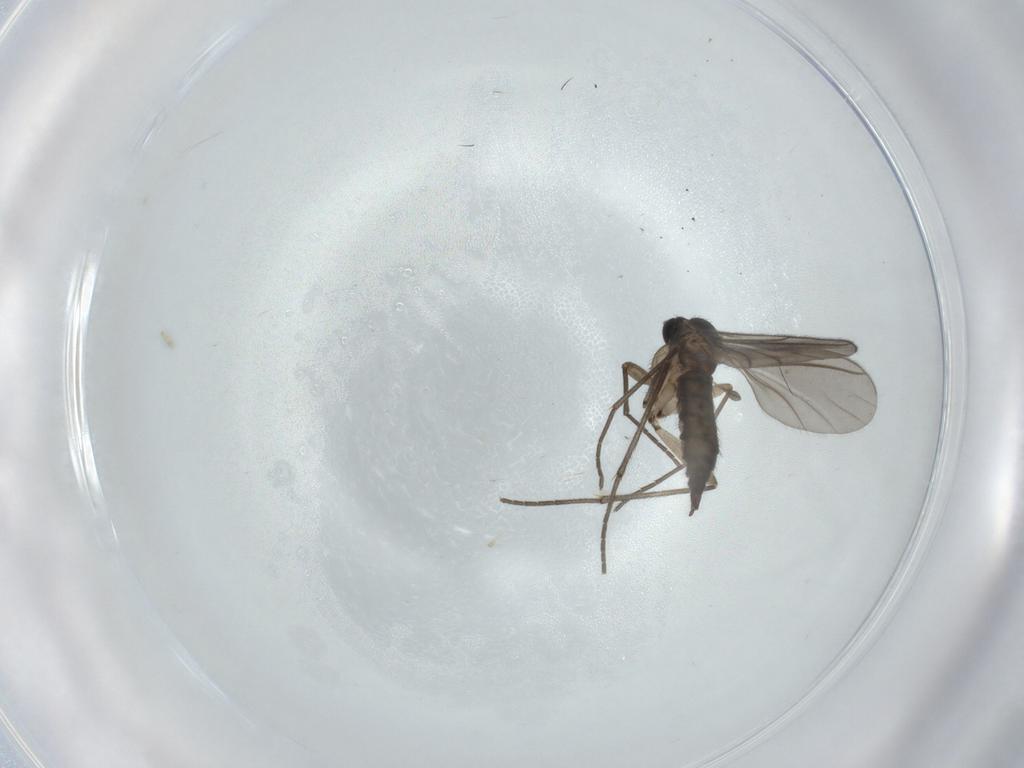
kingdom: Animalia
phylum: Arthropoda
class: Insecta
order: Diptera
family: Sciaridae
